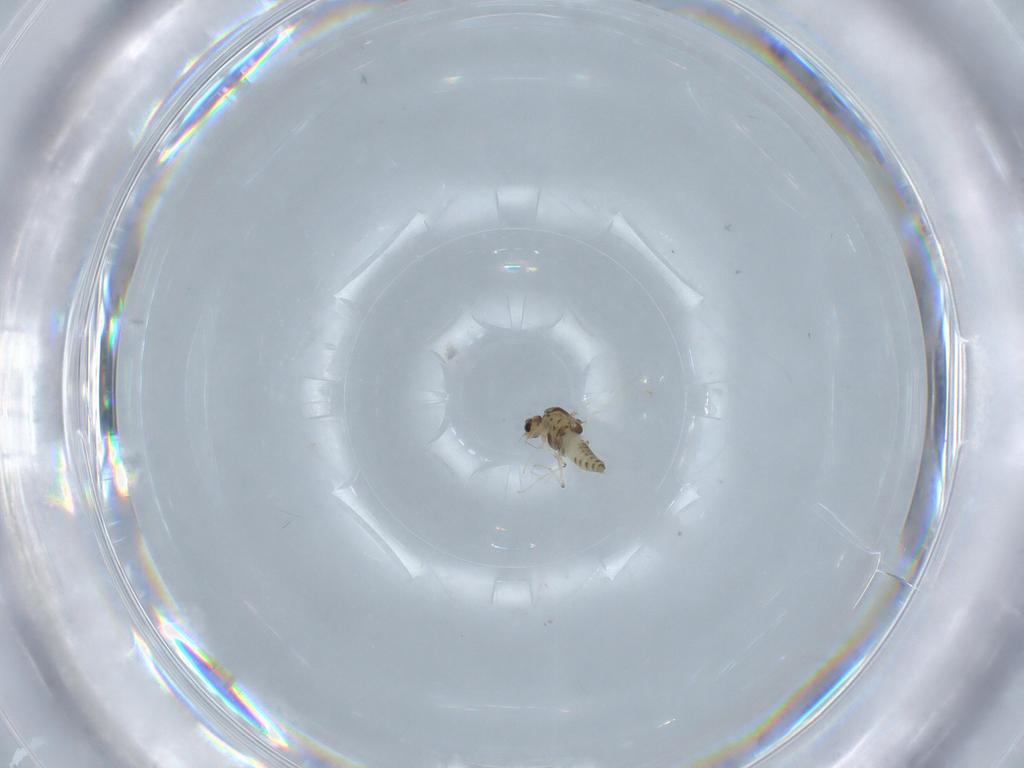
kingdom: Animalia
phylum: Arthropoda
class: Insecta
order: Diptera
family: Chironomidae
